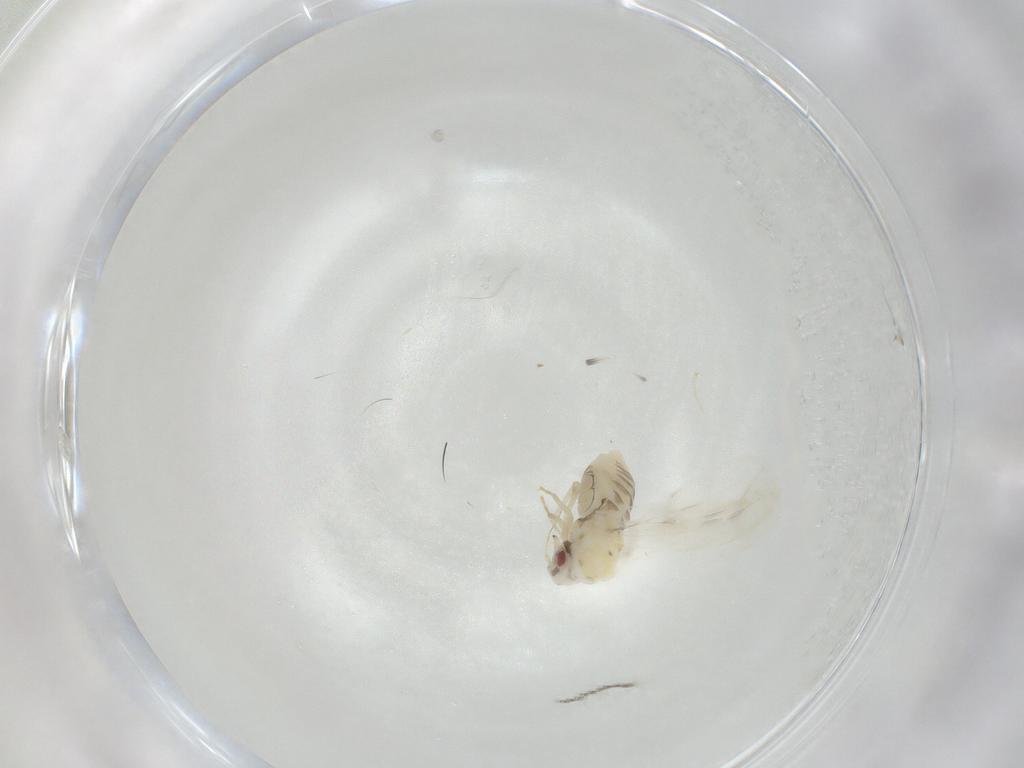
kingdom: Animalia
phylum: Arthropoda
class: Insecta
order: Hemiptera
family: Aleyrodidae
